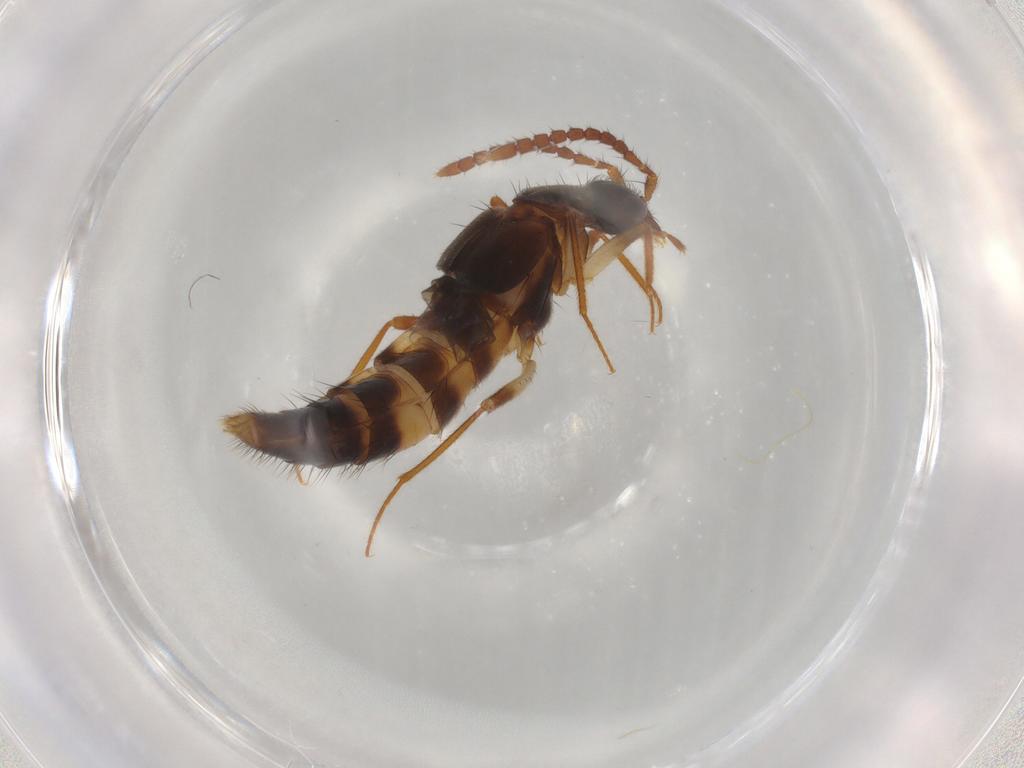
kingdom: Animalia
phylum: Arthropoda
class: Insecta
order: Coleoptera
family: Staphylinidae
